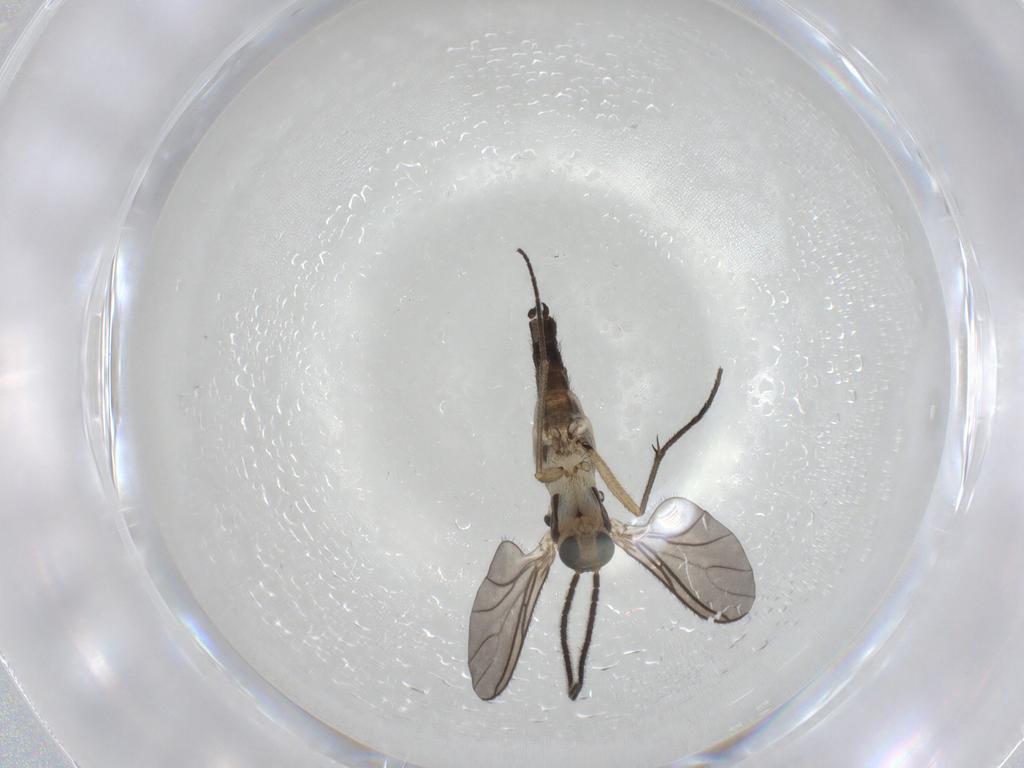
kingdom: Animalia
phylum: Arthropoda
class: Insecta
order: Diptera
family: Sciaridae
